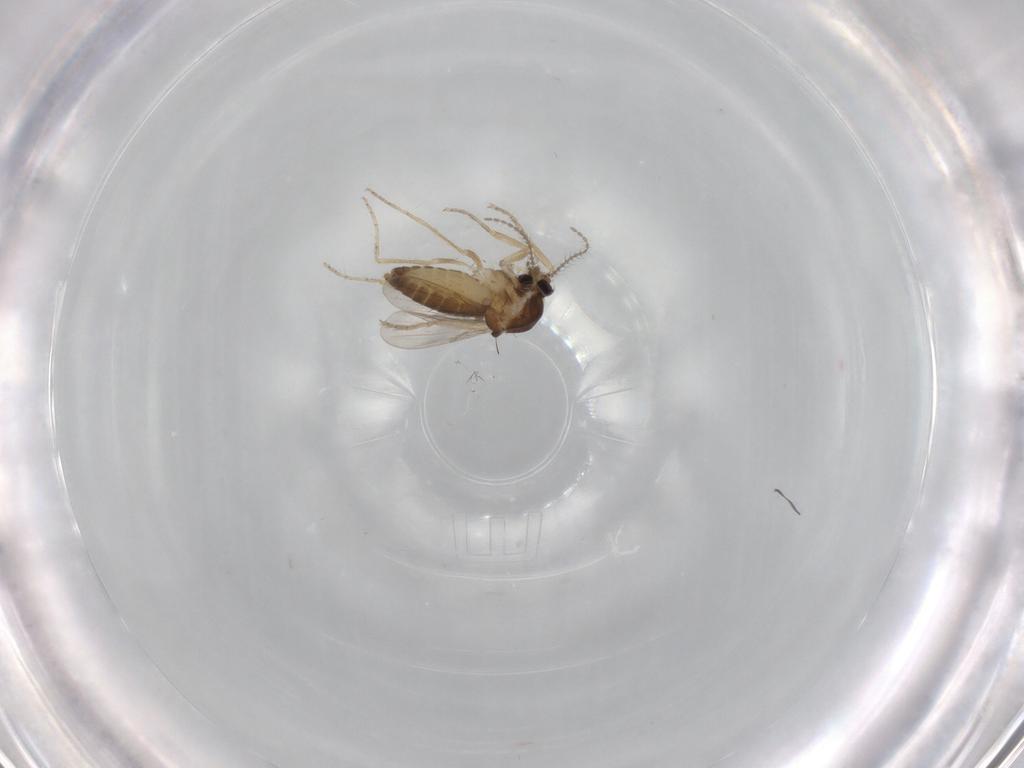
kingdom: Animalia
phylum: Arthropoda
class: Insecta
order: Diptera
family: Ceratopogonidae
